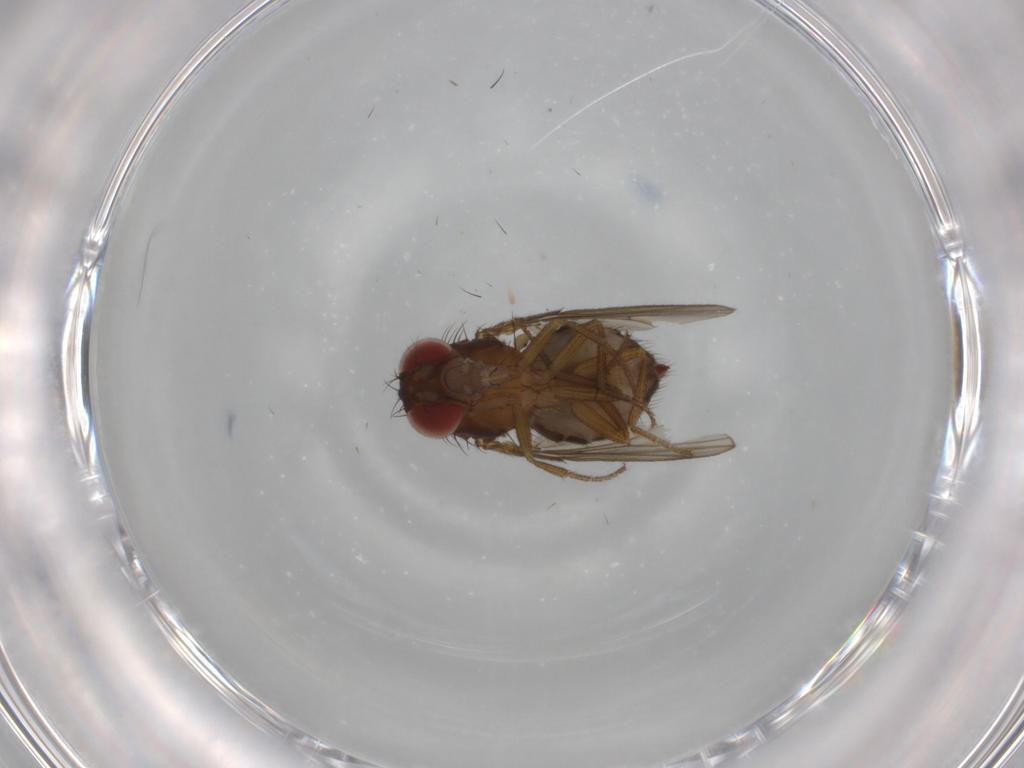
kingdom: Animalia
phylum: Arthropoda
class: Insecta
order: Diptera
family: Drosophilidae
